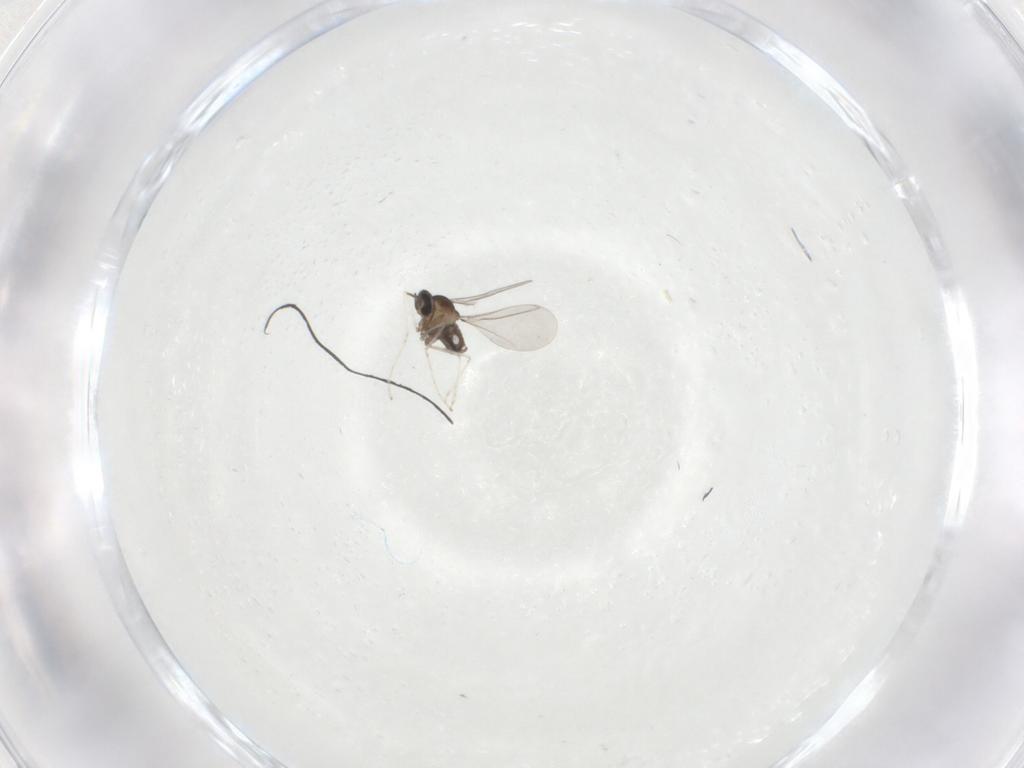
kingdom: Animalia
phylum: Arthropoda
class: Insecta
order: Diptera
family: Cecidomyiidae
